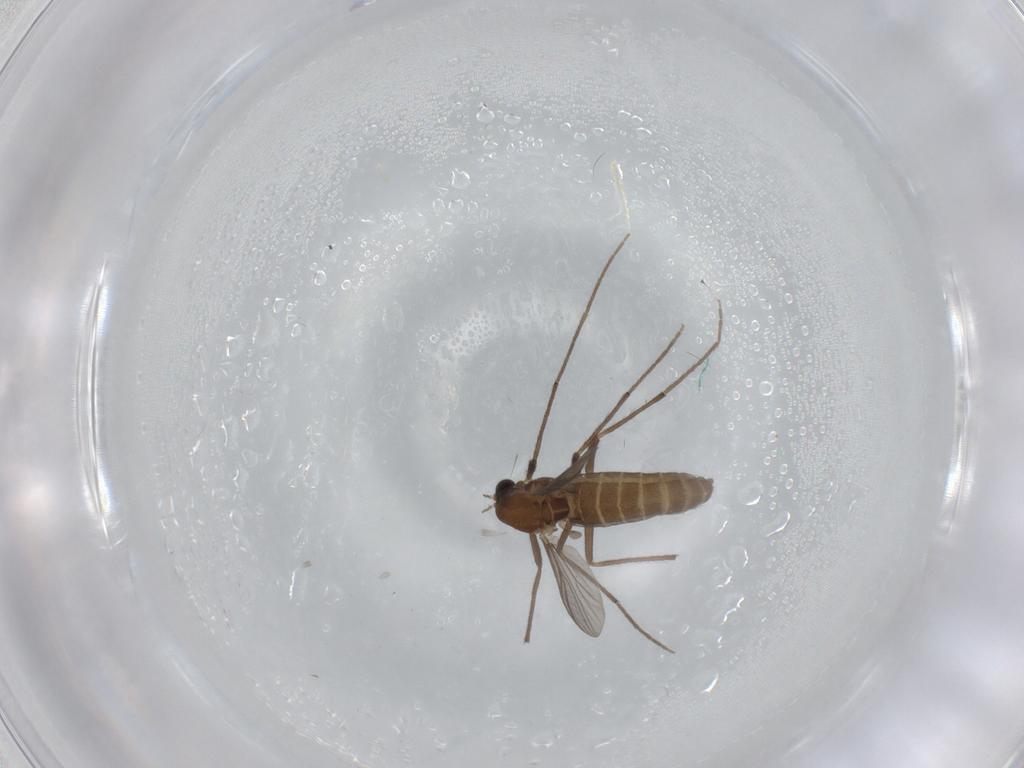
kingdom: Animalia
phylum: Arthropoda
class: Insecta
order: Diptera
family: Chironomidae
